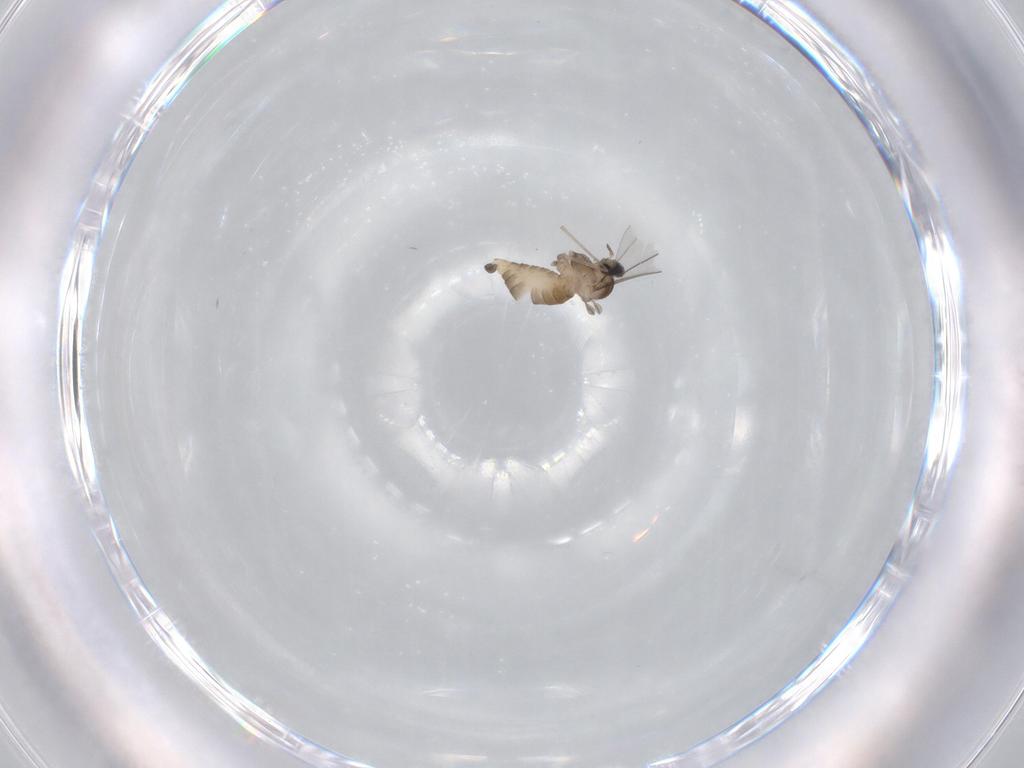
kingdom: Animalia
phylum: Arthropoda
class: Insecta
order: Diptera
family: Cecidomyiidae
